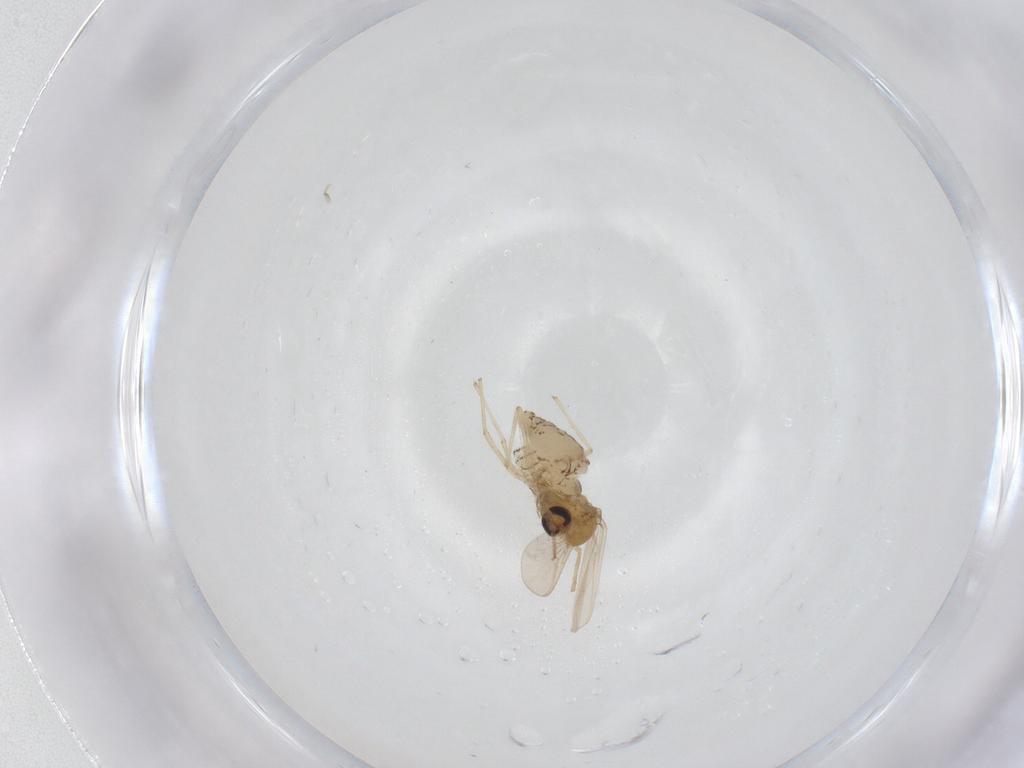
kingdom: Animalia
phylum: Arthropoda
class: Insecta
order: Diptera
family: Chironomidae
